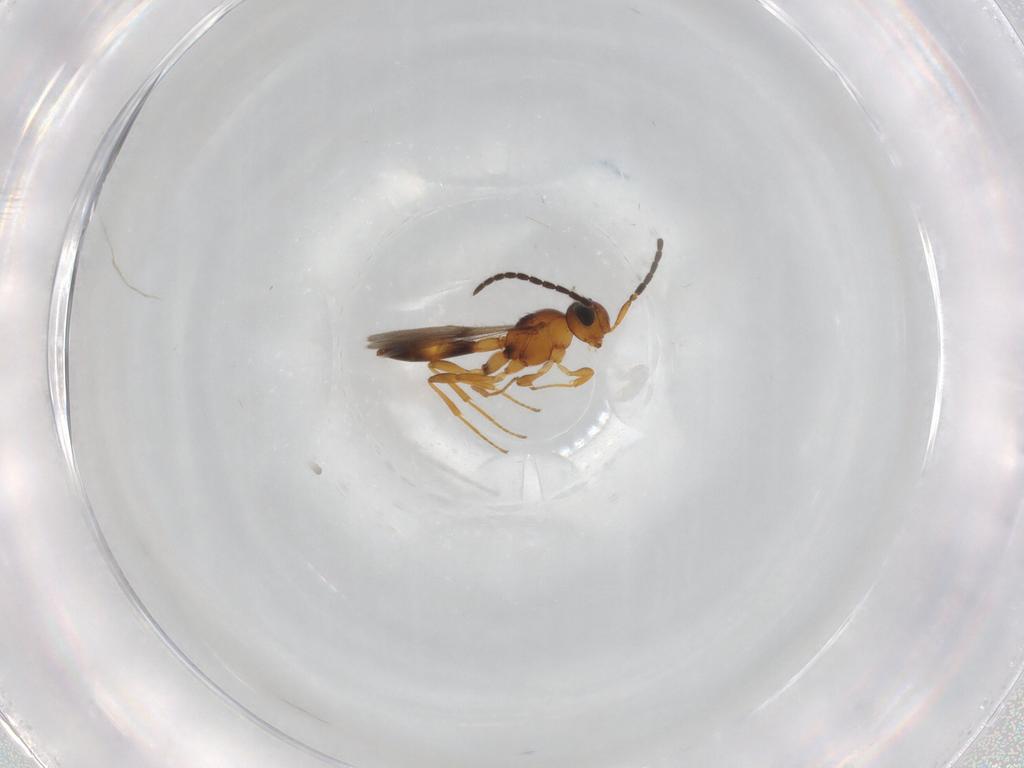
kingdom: Animalia
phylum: Arthropoda
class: Insecta
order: Hymenoptera
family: Scelionidae
